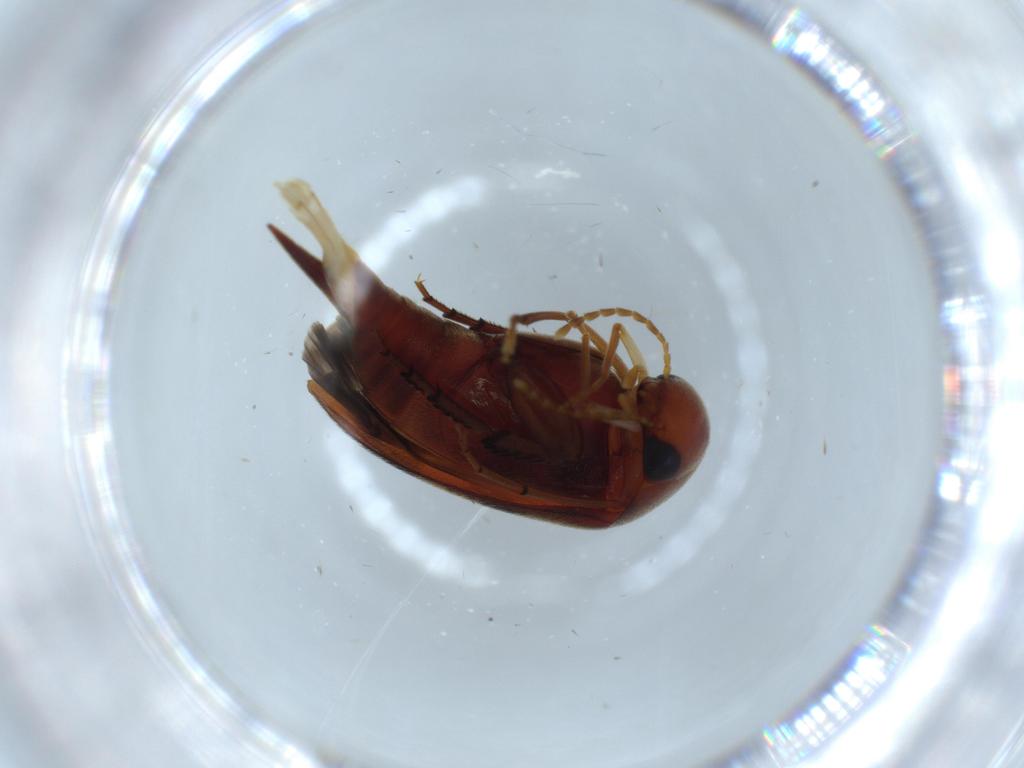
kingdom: Animalia
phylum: Arthropoda
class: Insecta
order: Coleoptera
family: Mordellidae
